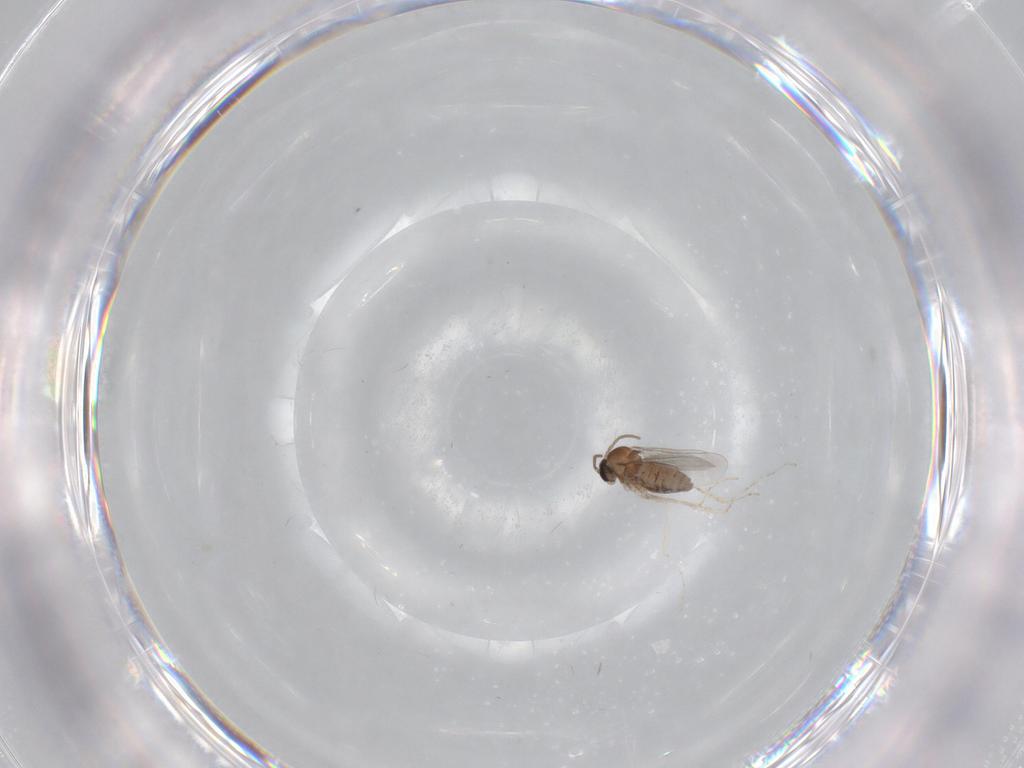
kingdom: Animalia
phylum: Arthropoda
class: Insecta
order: Diptera
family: Cecidomyiidae
